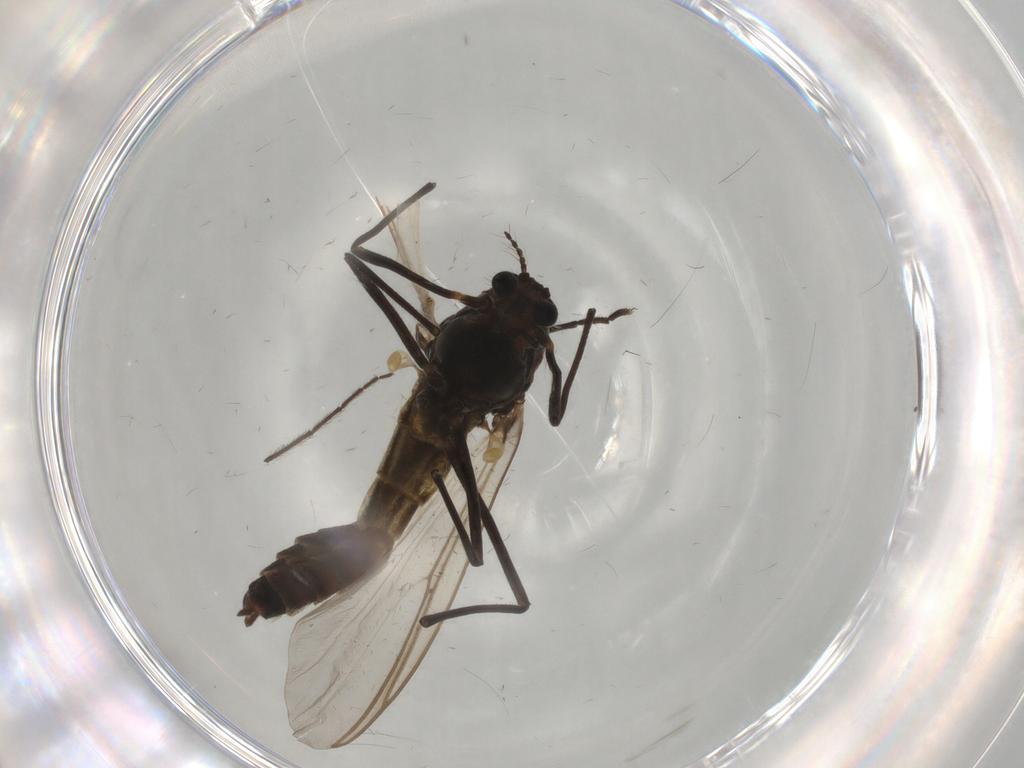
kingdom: Animalia
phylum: Arthropoda
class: Insecta
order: Diptera
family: Chironomidae
